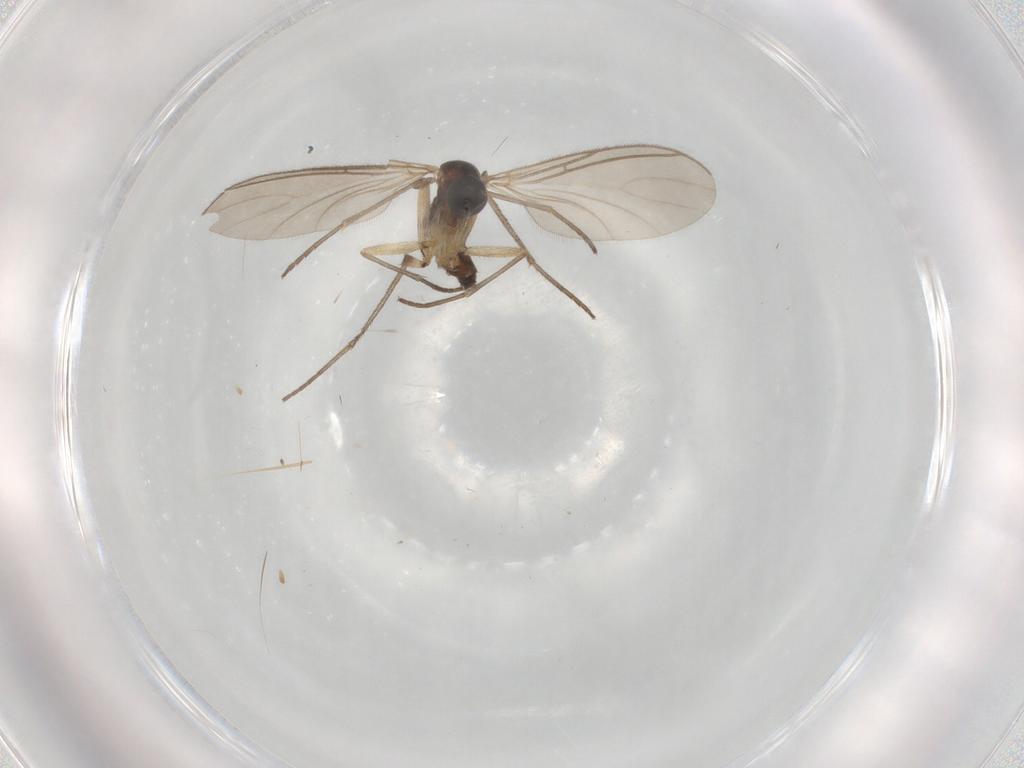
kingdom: Animalia
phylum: Arthropoda
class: Insecta
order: Diptera
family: Sciaridae
